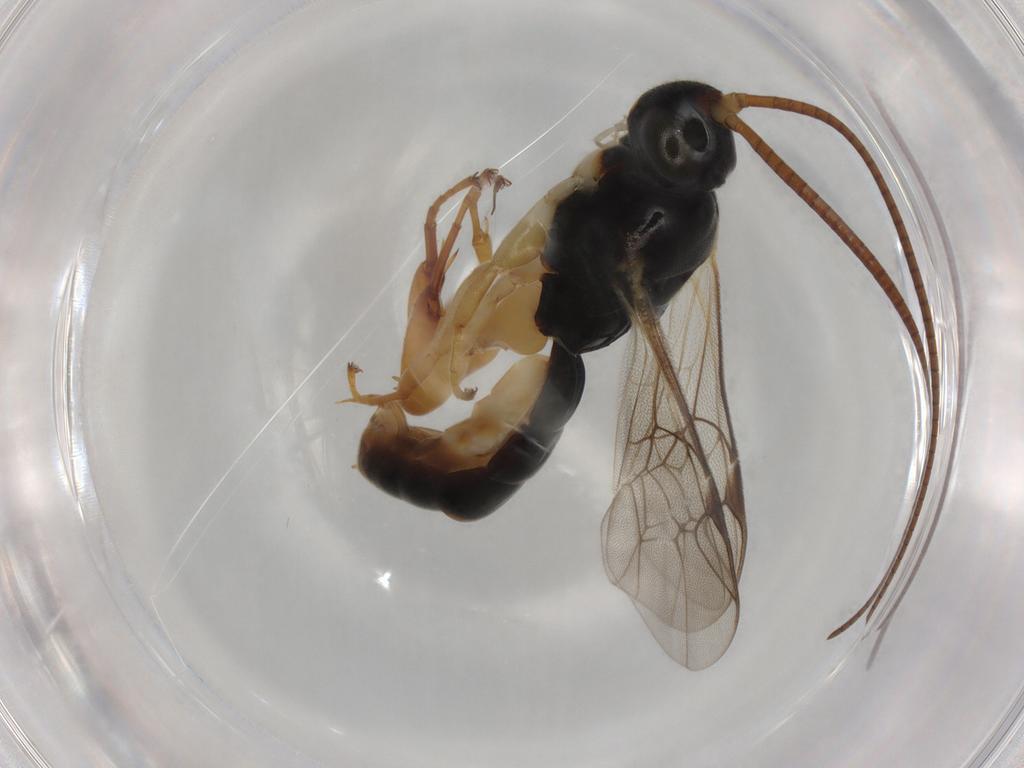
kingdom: Animalia
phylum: Arthropoda
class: Insecta
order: Hymenoptera
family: Ichneumonidae
